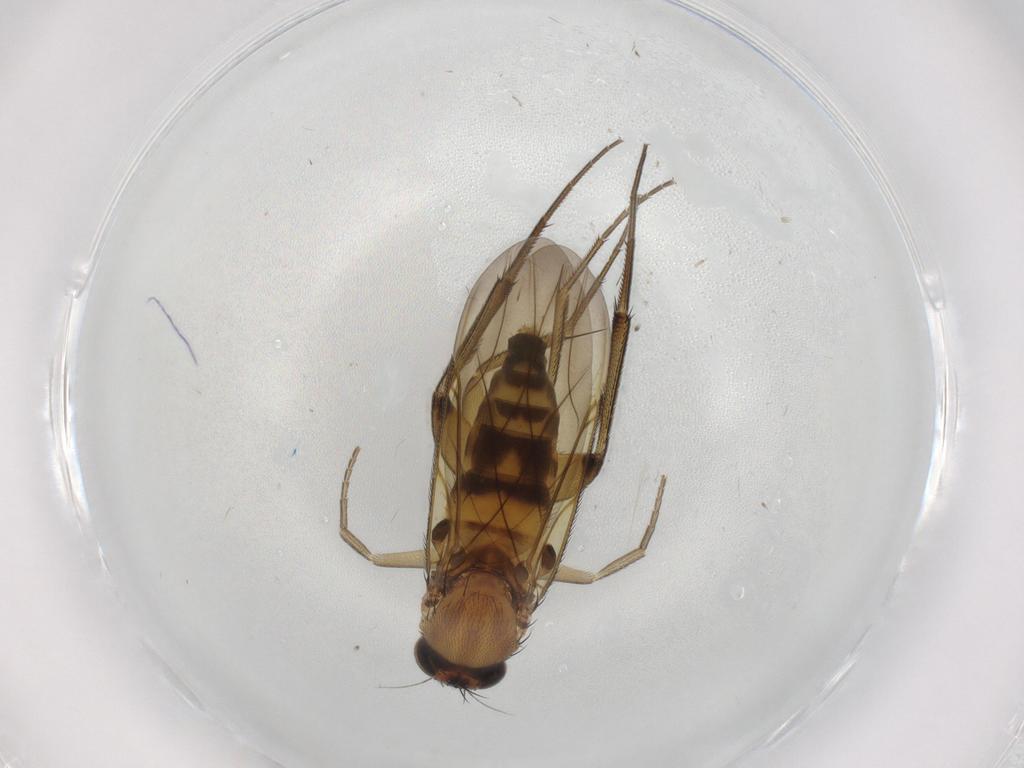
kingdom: Animalia
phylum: Arthropoda
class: Insecta
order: Diptera
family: Phoridae
